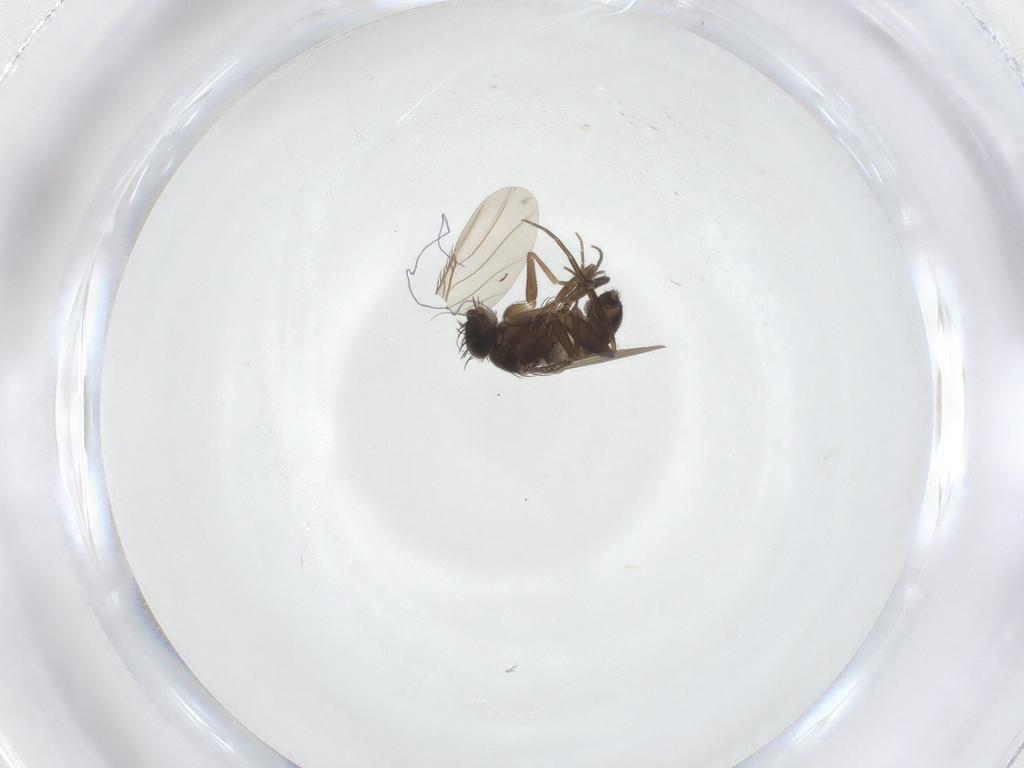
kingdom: Animalia
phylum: Arthropoda
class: Insecta
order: Diptera
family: Phoridae
